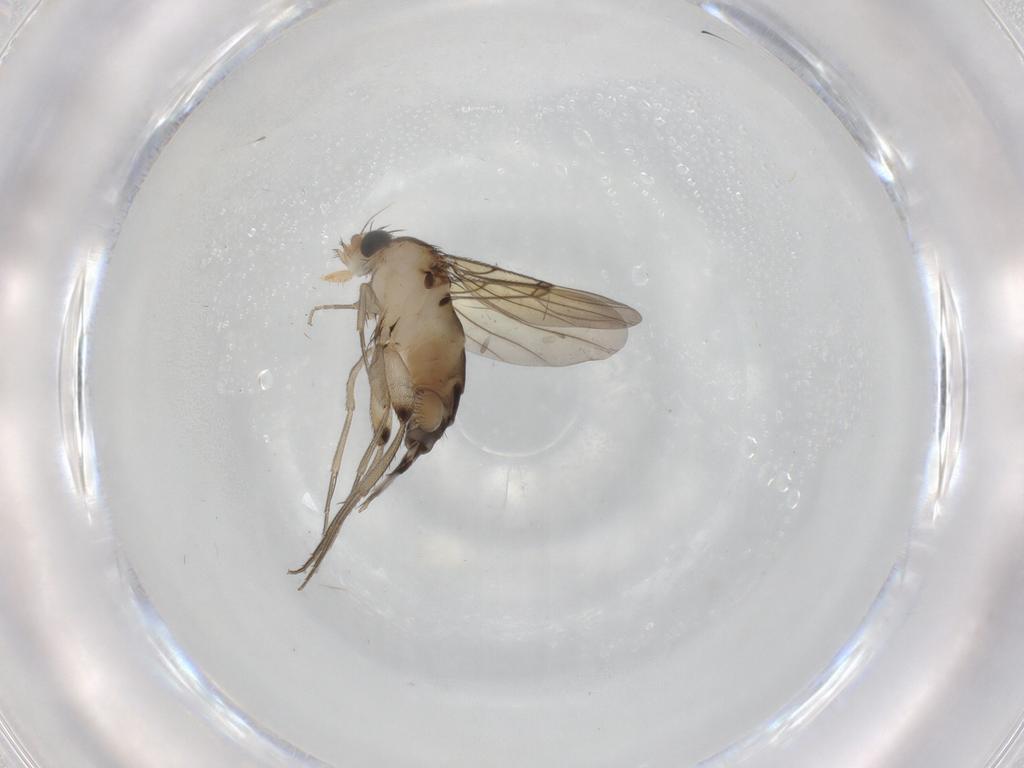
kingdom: Animalia
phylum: Arthropoda
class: Insecta
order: Diptera
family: Phoridae
